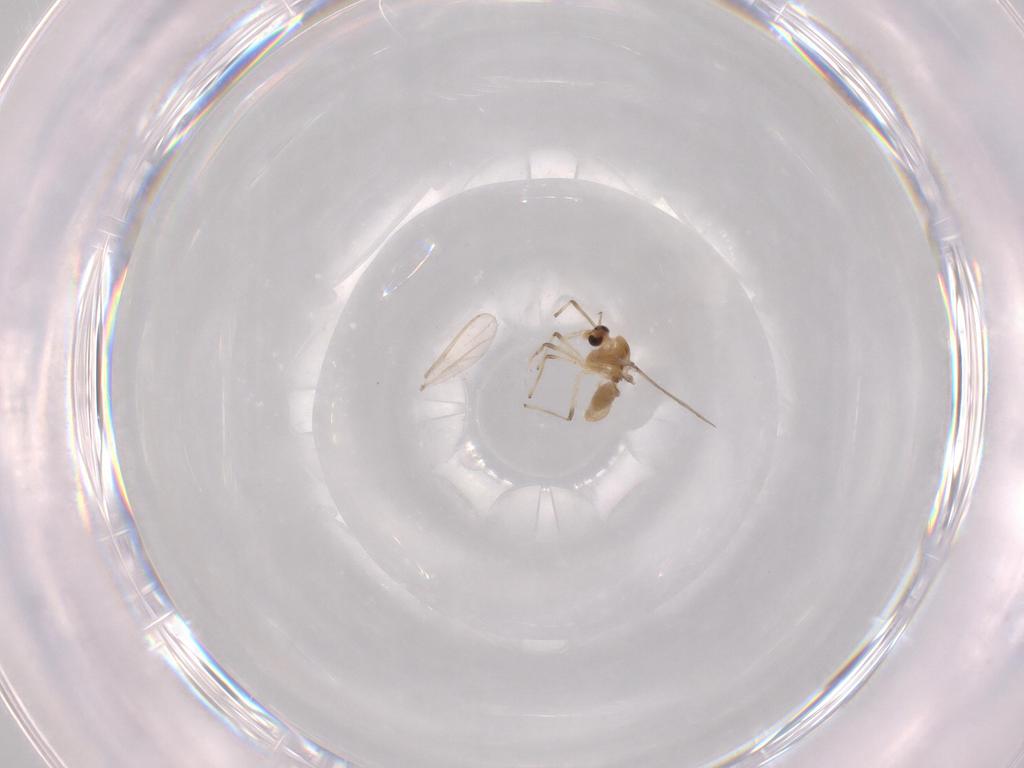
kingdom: Animalia
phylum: Arthropoda
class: Insecta
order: Diptera
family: Chironomidae
